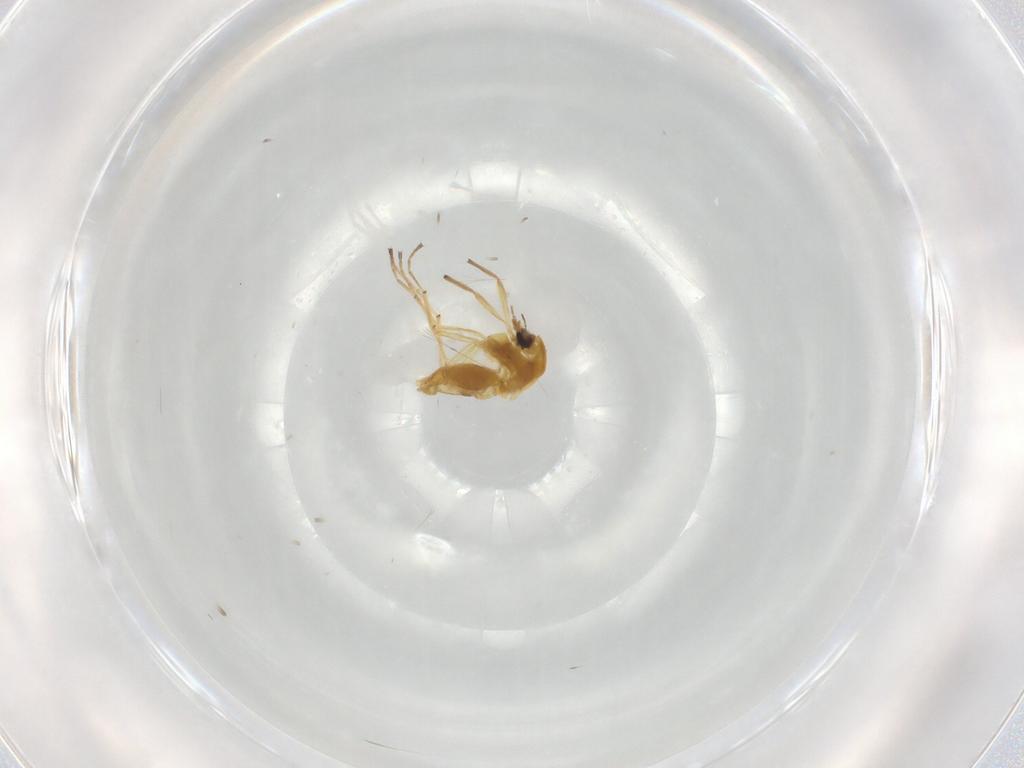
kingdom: Animalia
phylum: Arthropoda
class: Insecta
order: Diptera
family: Chironomidae
